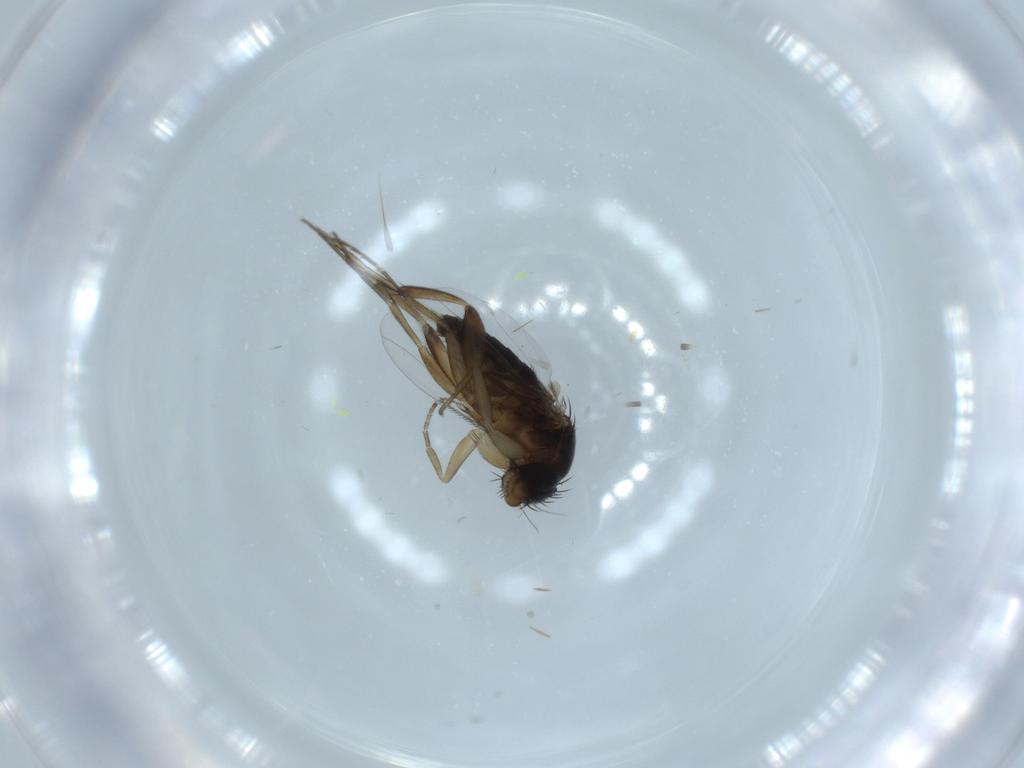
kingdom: Animalia
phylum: Arthropoda
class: Insecta
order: Diptera
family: Phoridae
